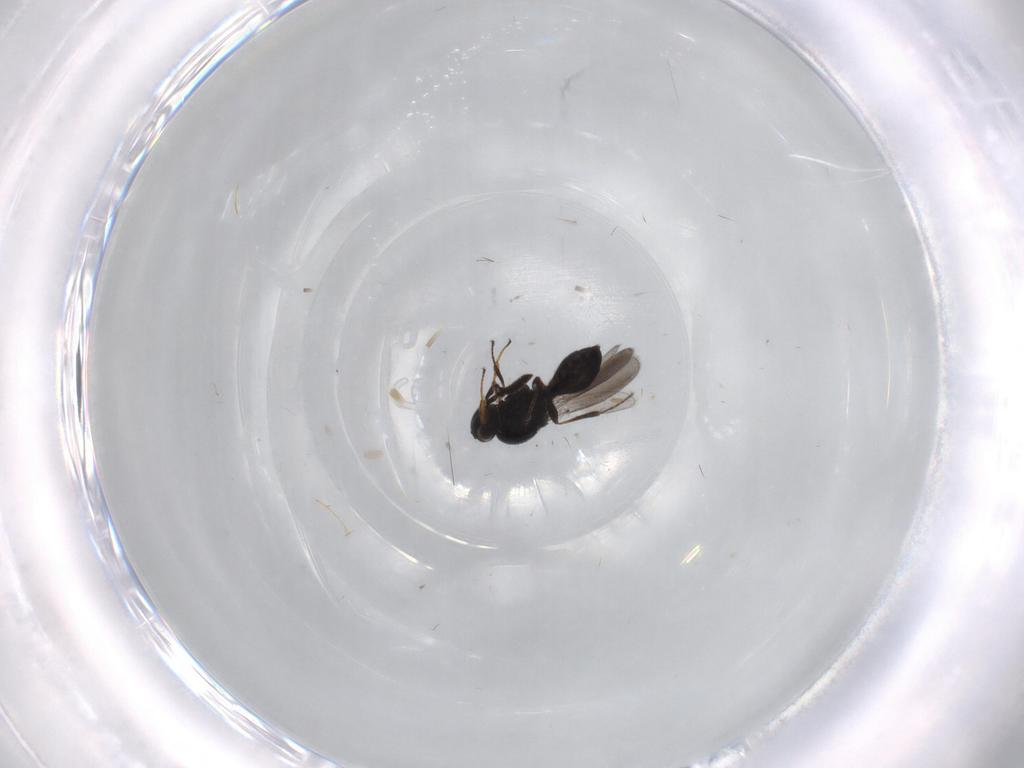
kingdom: Animalia
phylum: Arthropoda
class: Insecta
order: Hymenoptera
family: Platygastridae
